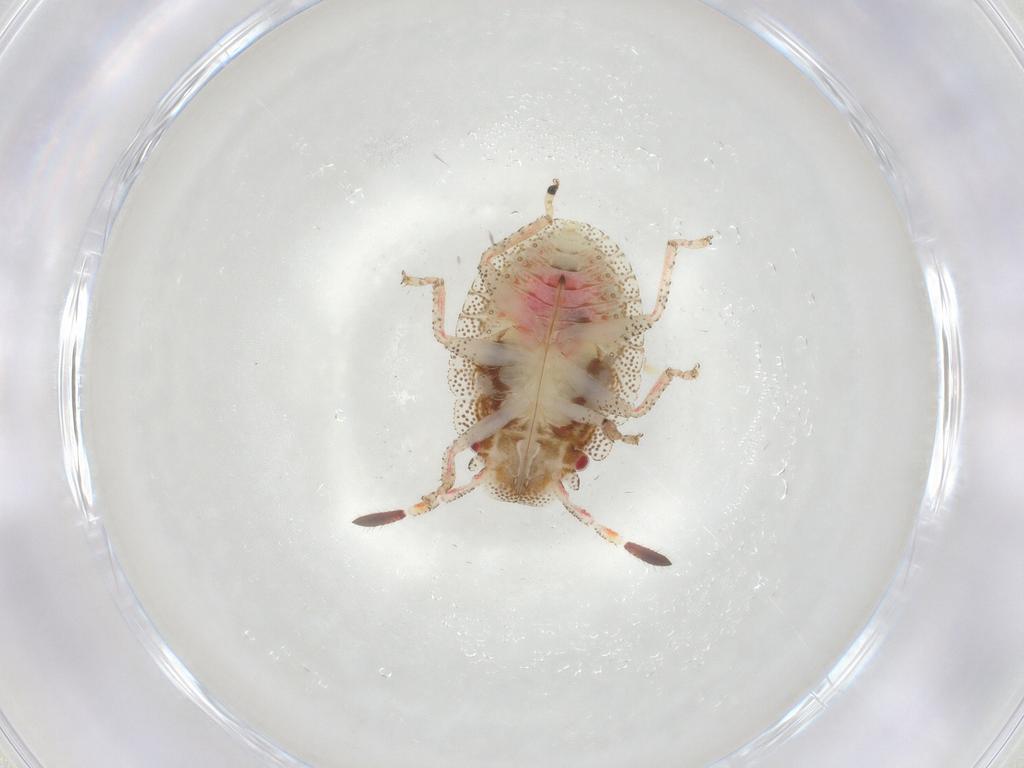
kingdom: Animalia
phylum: Arthropoda
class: Insecta
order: Hemiptera
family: Pentatomidae
